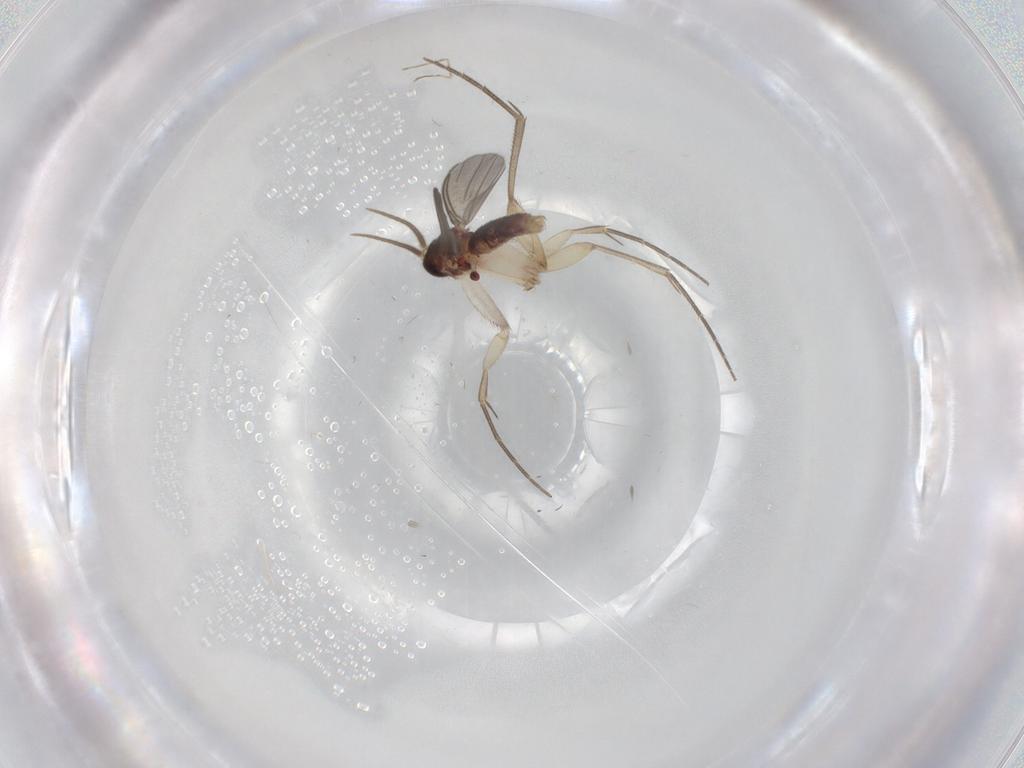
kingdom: Animalia
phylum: Arthropoda
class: Insecta
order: Diptera
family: Mycetophilidae
